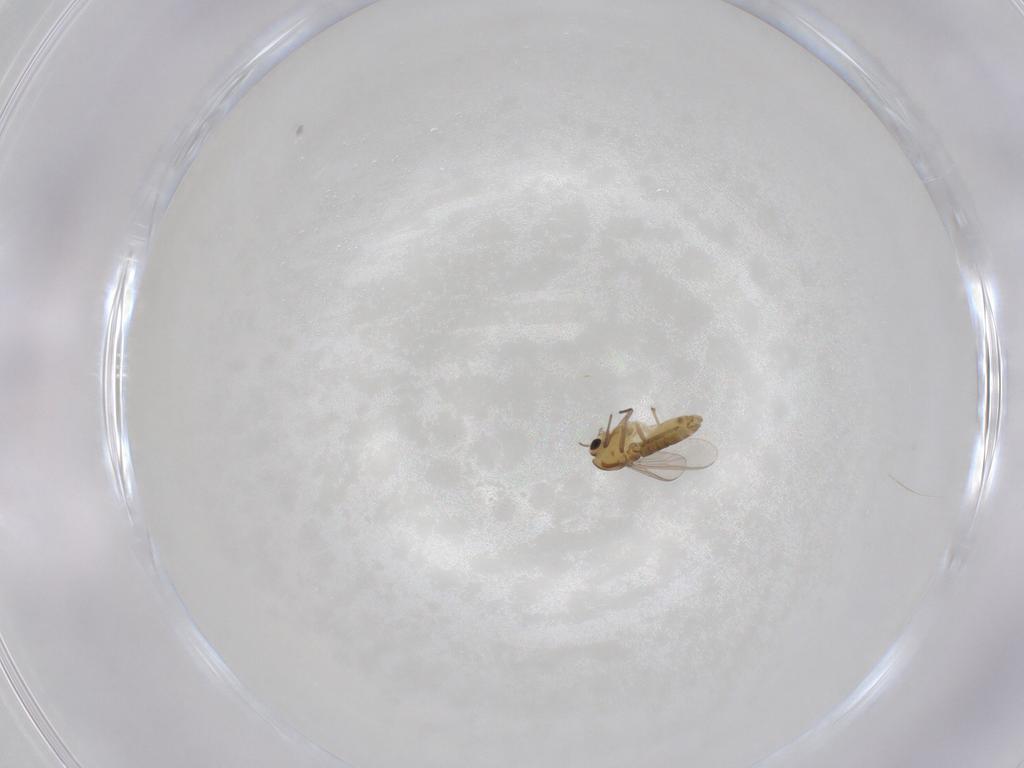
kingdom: Animalia
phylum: Arthropoda
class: Insecta
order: Diptera
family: Chironomidae
